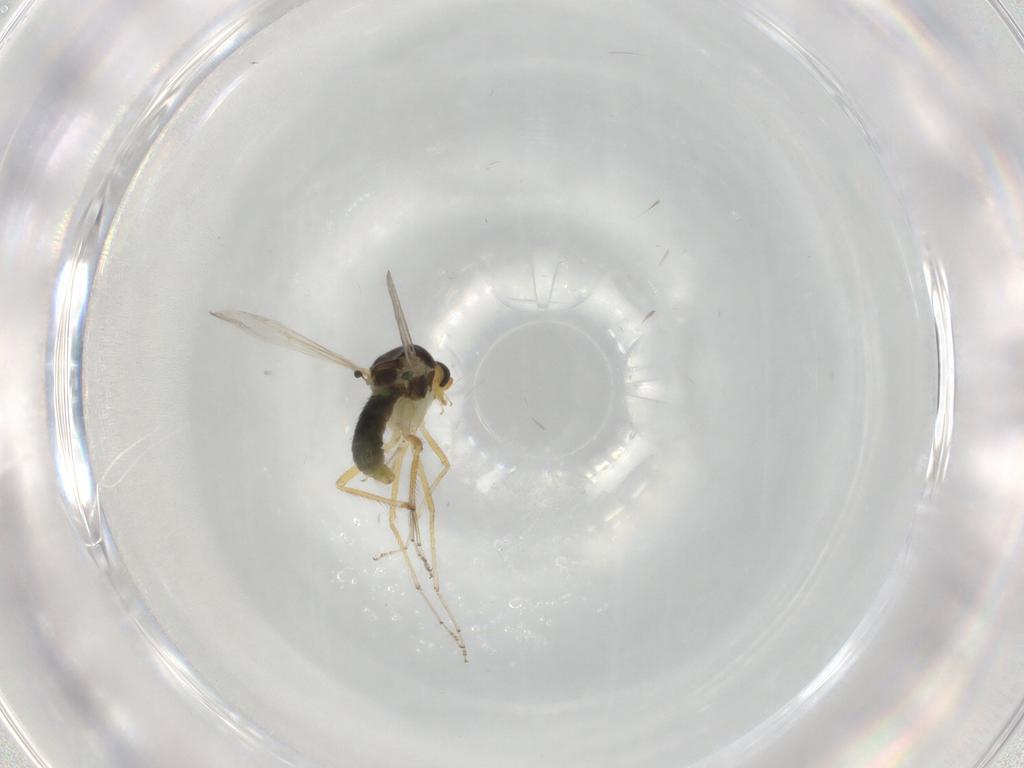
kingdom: Animalia
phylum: Arthropoda
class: Insecta
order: Diptera
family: Ceratopogonidae
